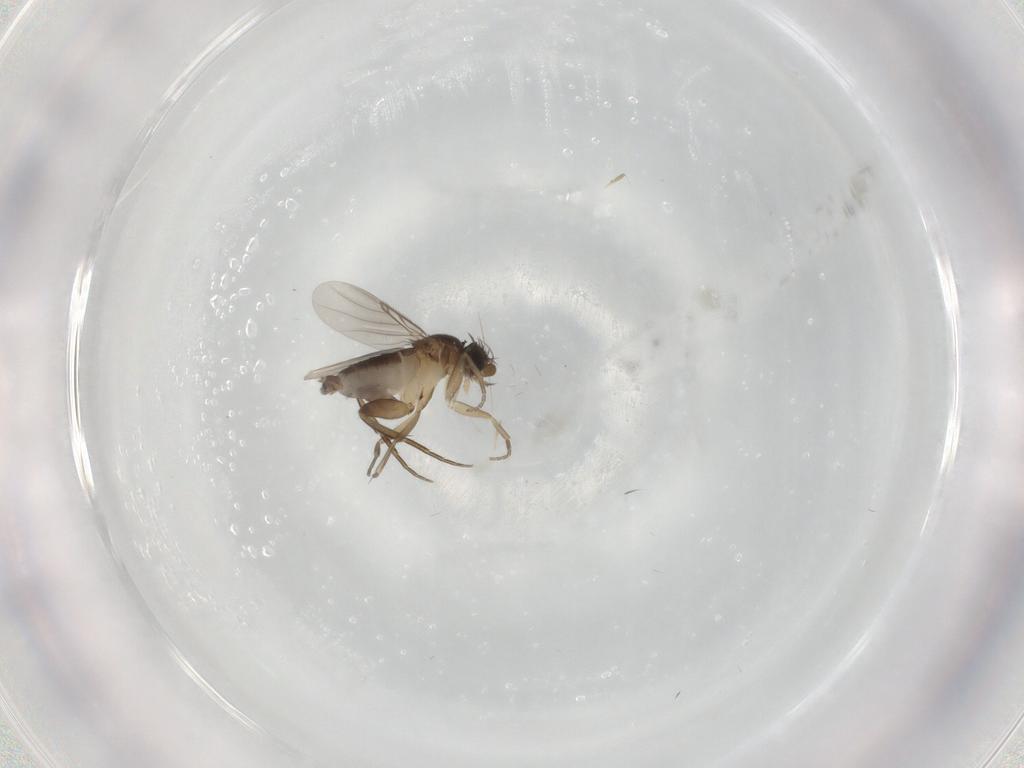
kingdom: Animalia
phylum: Arthropoda
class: Insecta
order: Diptera
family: Phoridae
